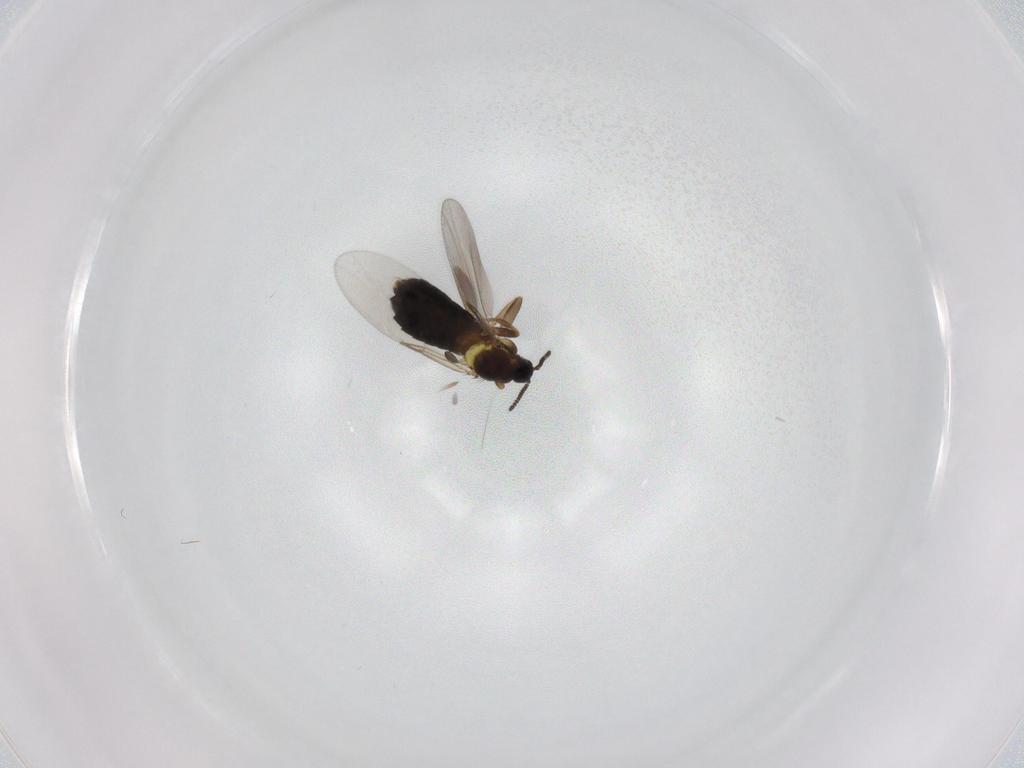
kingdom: Animalia
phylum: Arthropoda
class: Insecta
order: Diptera
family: Scatopsidae
